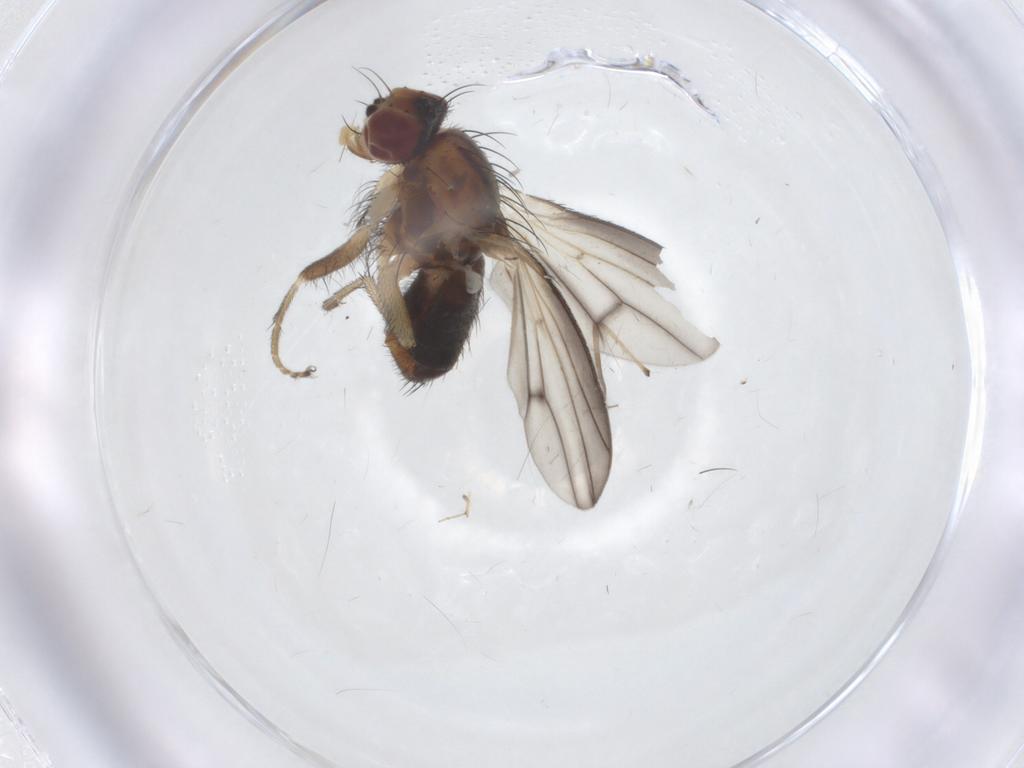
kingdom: Animalia
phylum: Arthropoda
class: Insecta
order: Diptera
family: Heleomyzidae
